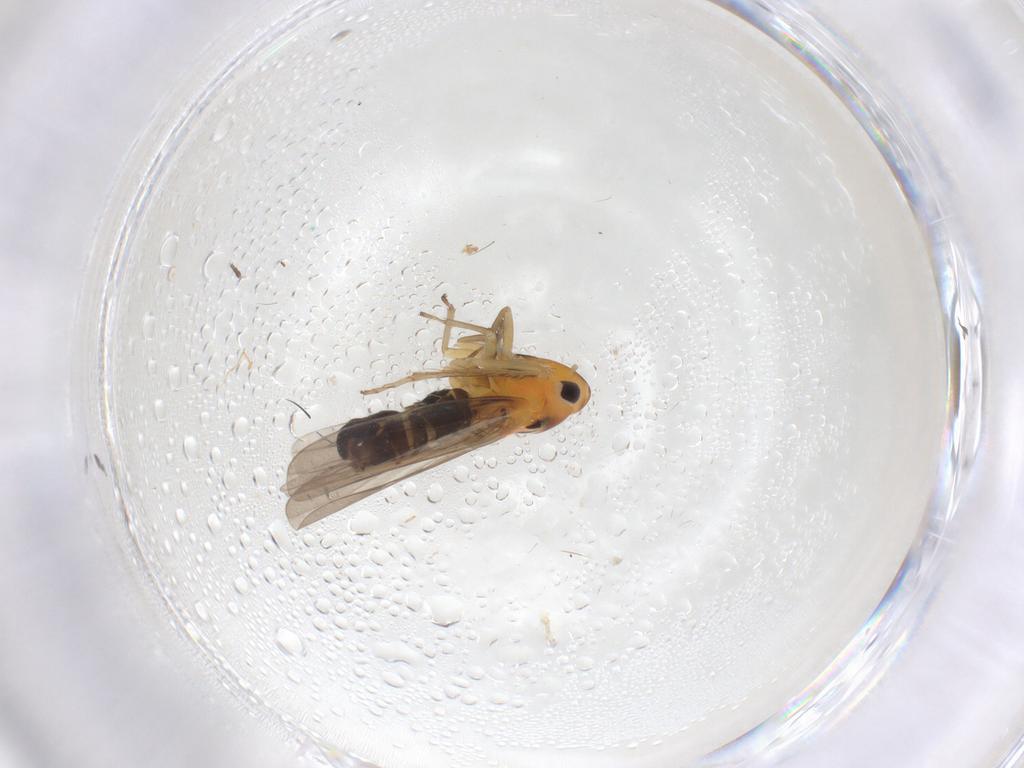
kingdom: Animalia
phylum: Arthropoda
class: Insecta
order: Hemiptera
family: Cicadellidae
